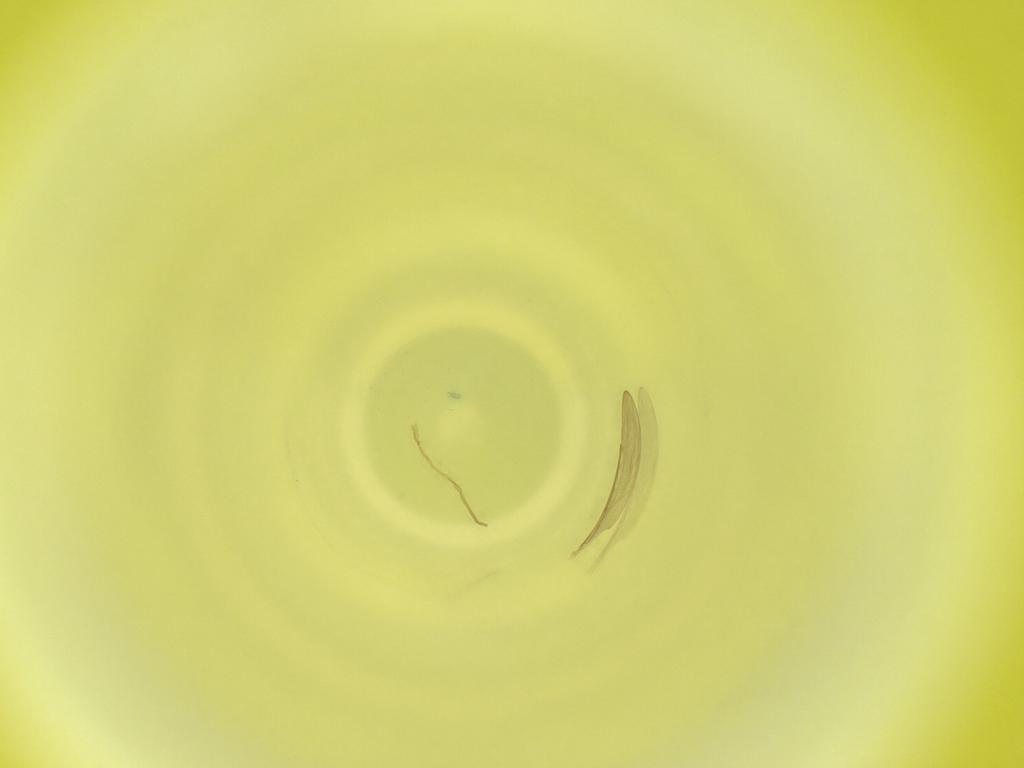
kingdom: Animalia
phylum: Arthropoda
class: Insecta
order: Diptera
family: Cecidomyiidae
